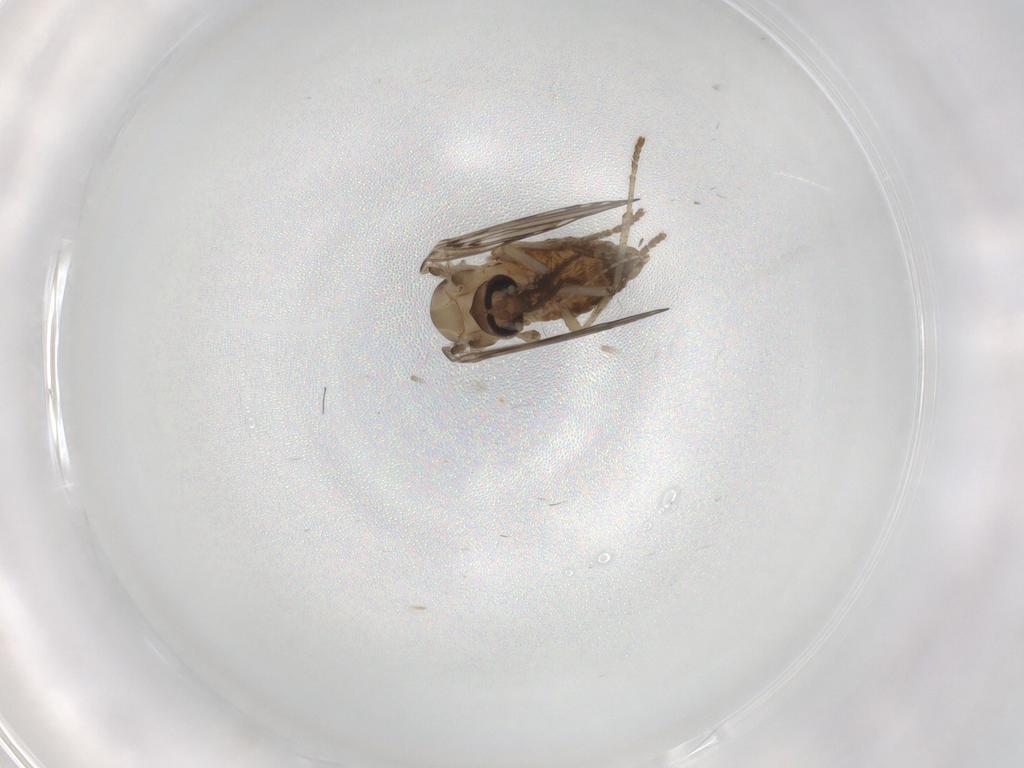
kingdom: Animalia
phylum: Arthropoda
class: Insecta
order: Diptera
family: Psychodidae
